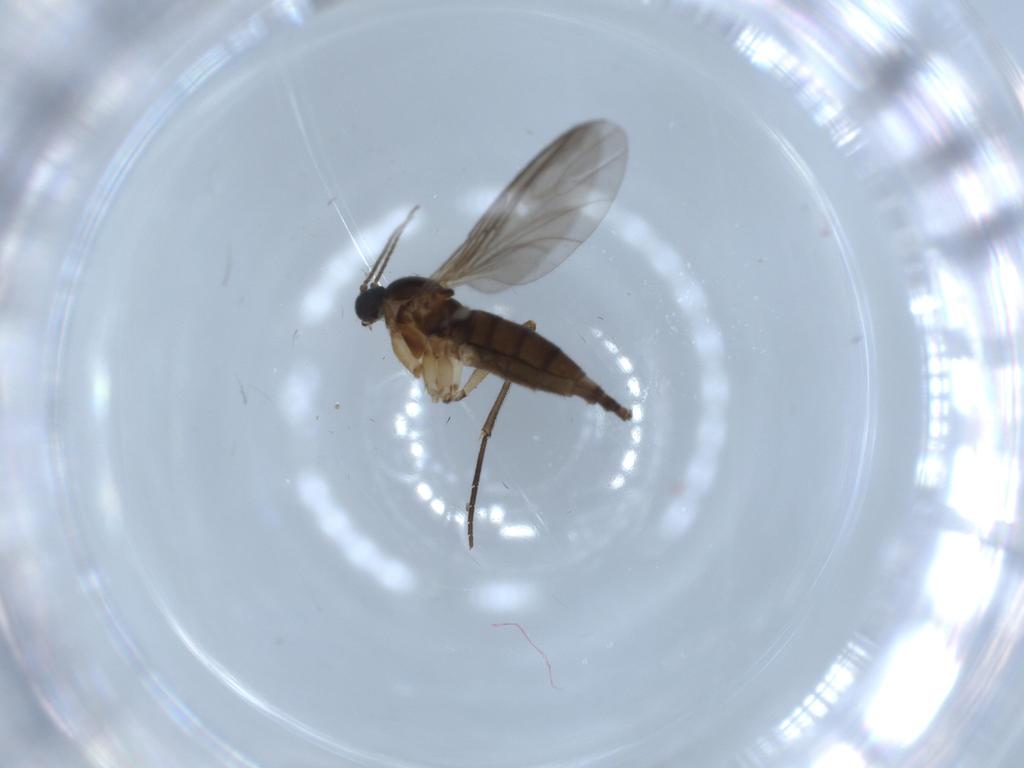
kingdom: Animalia
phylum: Arthropoda
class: Insecta
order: Diptera
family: Sciaridae
